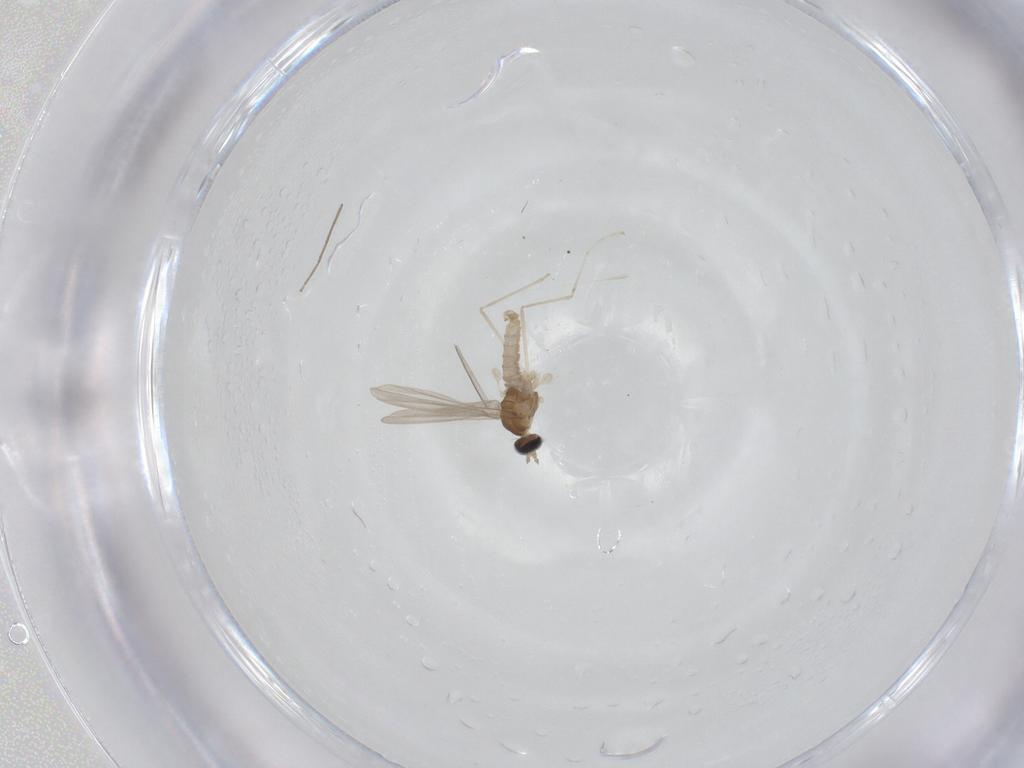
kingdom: Animalia
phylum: Arthropoda
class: Insecta
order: Diptera
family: Cecidomyiidae
